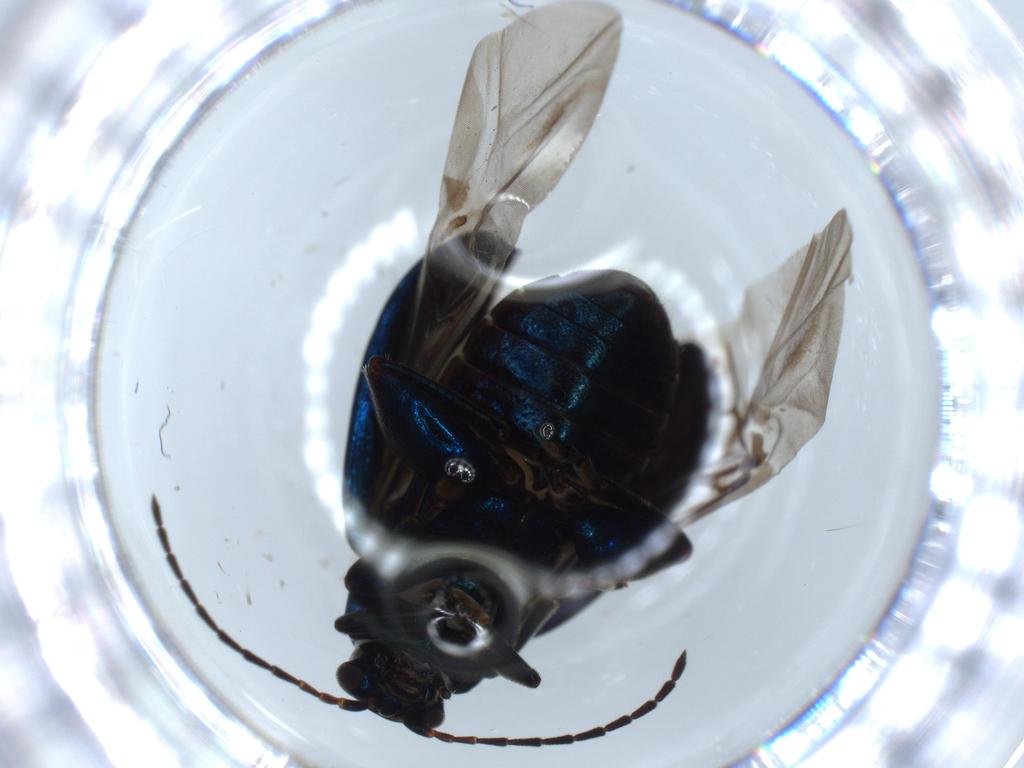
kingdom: Animalia
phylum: Arthropoda
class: Insecta
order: Coleoptera
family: Chrysomelidae
